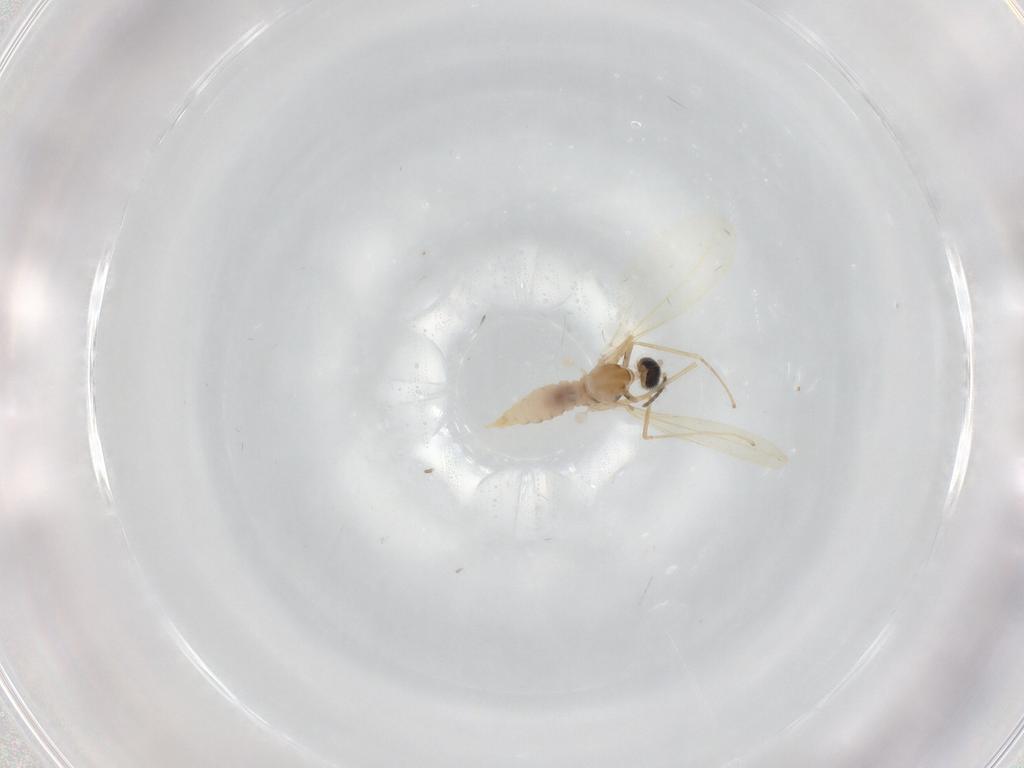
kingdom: Animalia
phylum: Arthropoda
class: Insecta
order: Diptera
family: Cecidomyiidae
